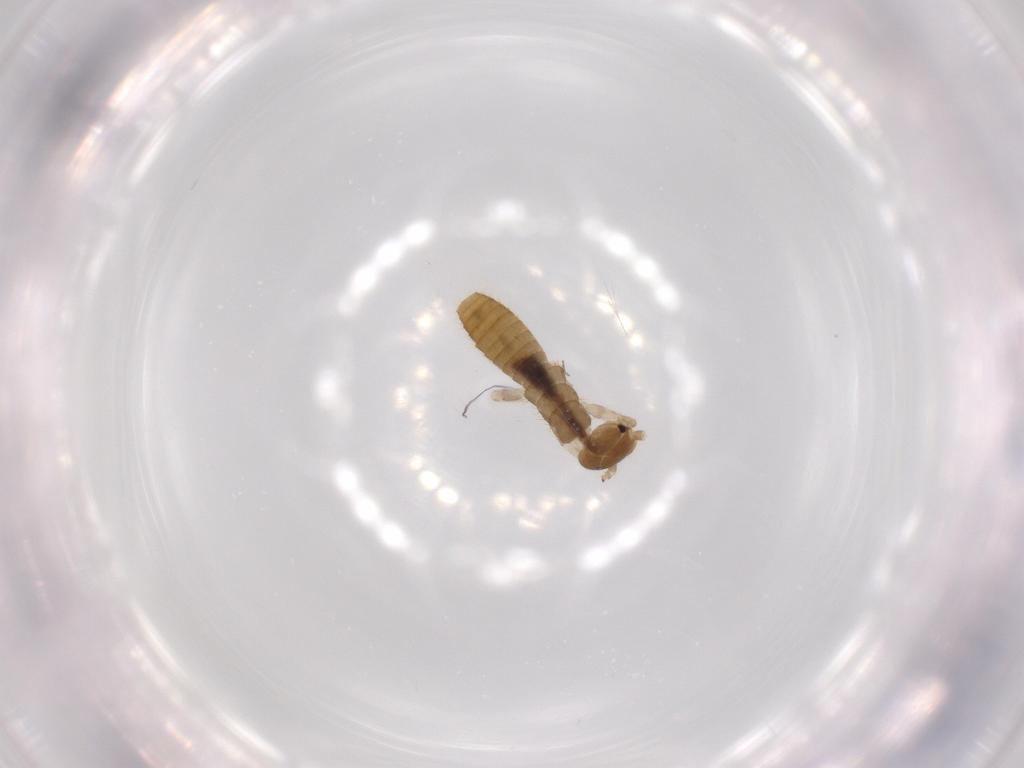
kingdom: Animalia
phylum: Arthropoda
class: Insecta
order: Dermaptera
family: Forficulidae
